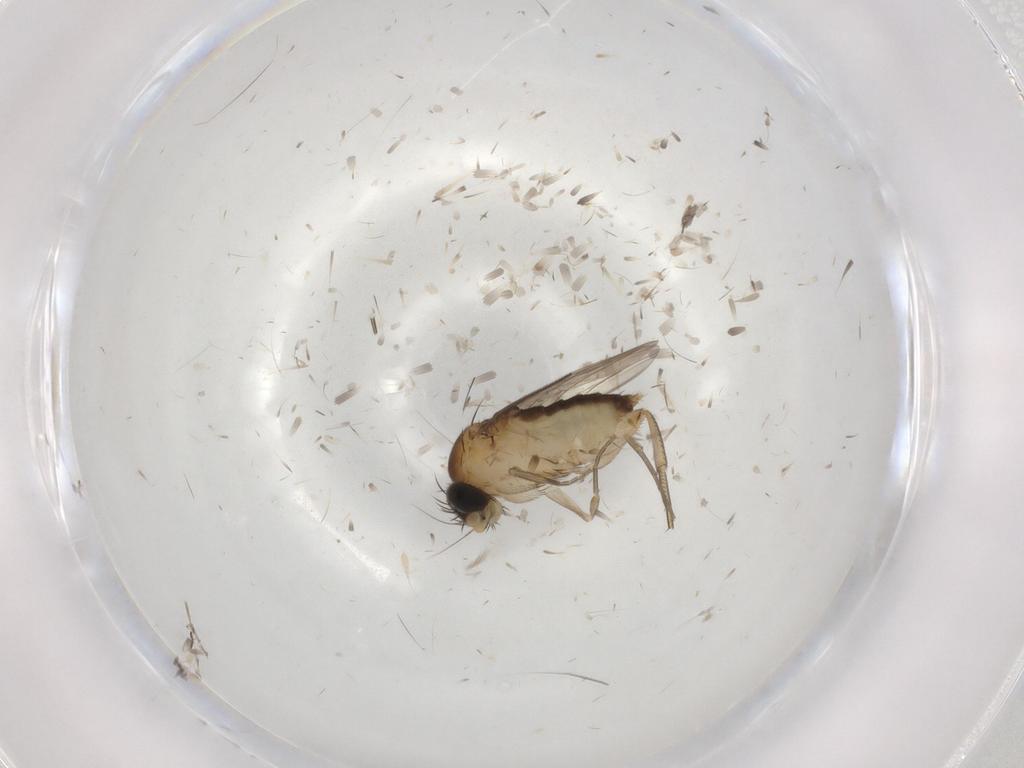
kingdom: Animalia
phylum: Arthropoda
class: Insecta
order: Diptera
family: Phoridae
